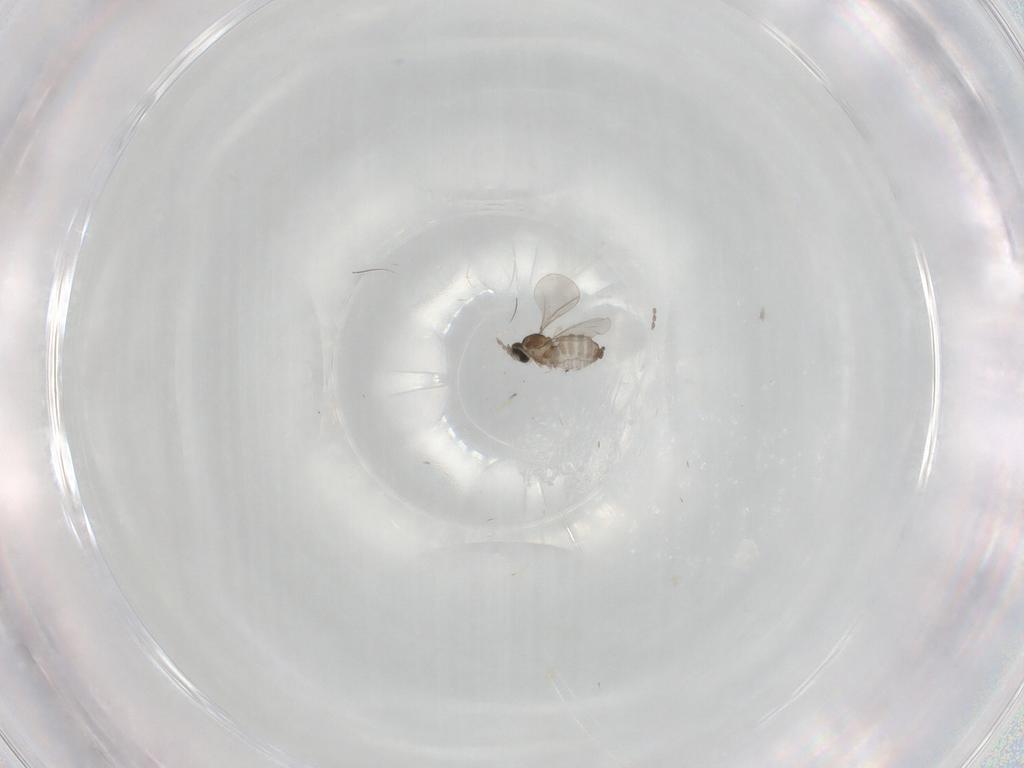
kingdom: Animalia
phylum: Arthropoda
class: Insecta
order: Diptera
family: Cecidomyiidae
